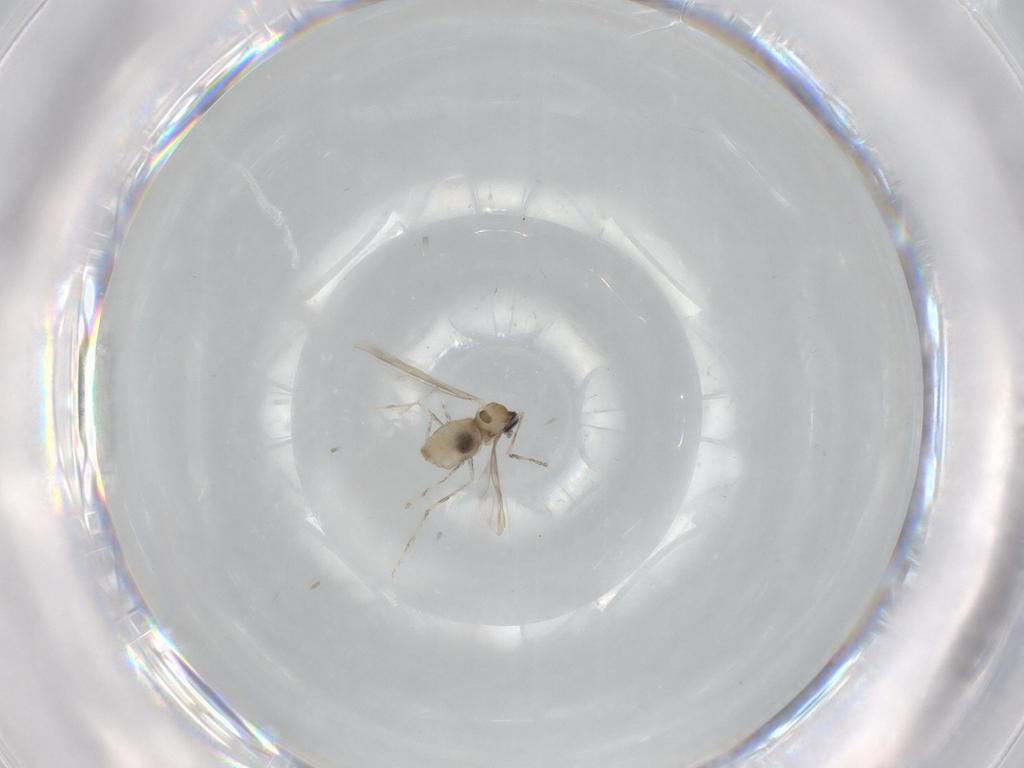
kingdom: Animalia
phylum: Arthropoda
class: Insecta
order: Diptera
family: Cecidomyiidae
